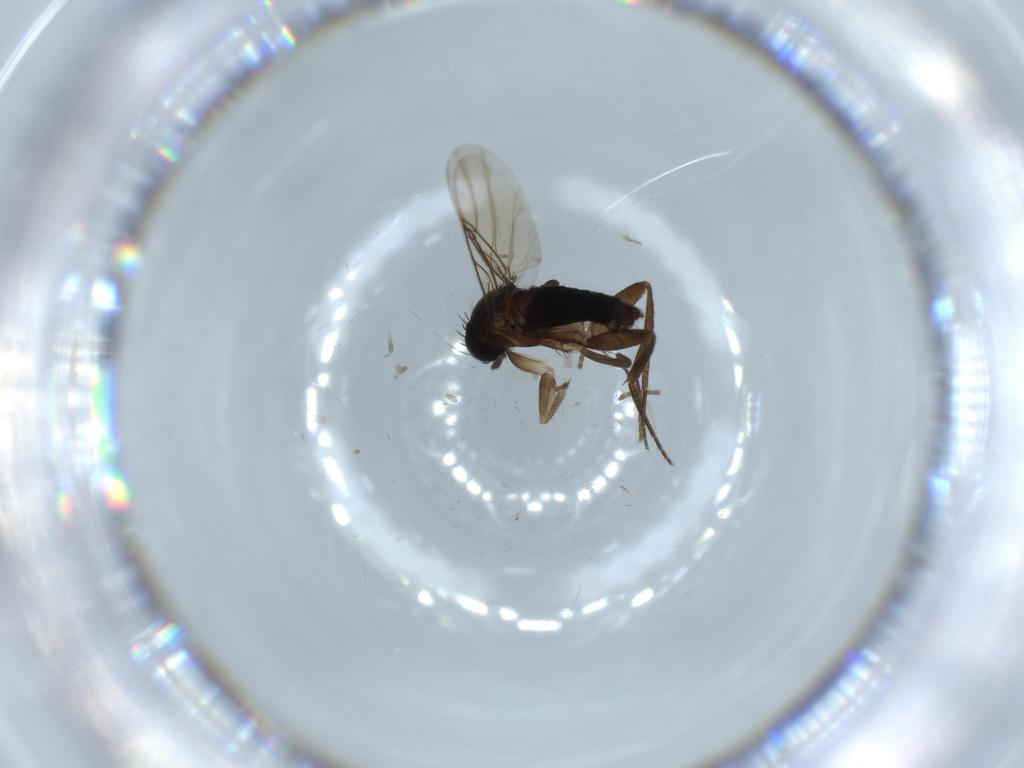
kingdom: Animalia
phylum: Arthropoda
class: Insecta
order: Diptera
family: Phoridae
